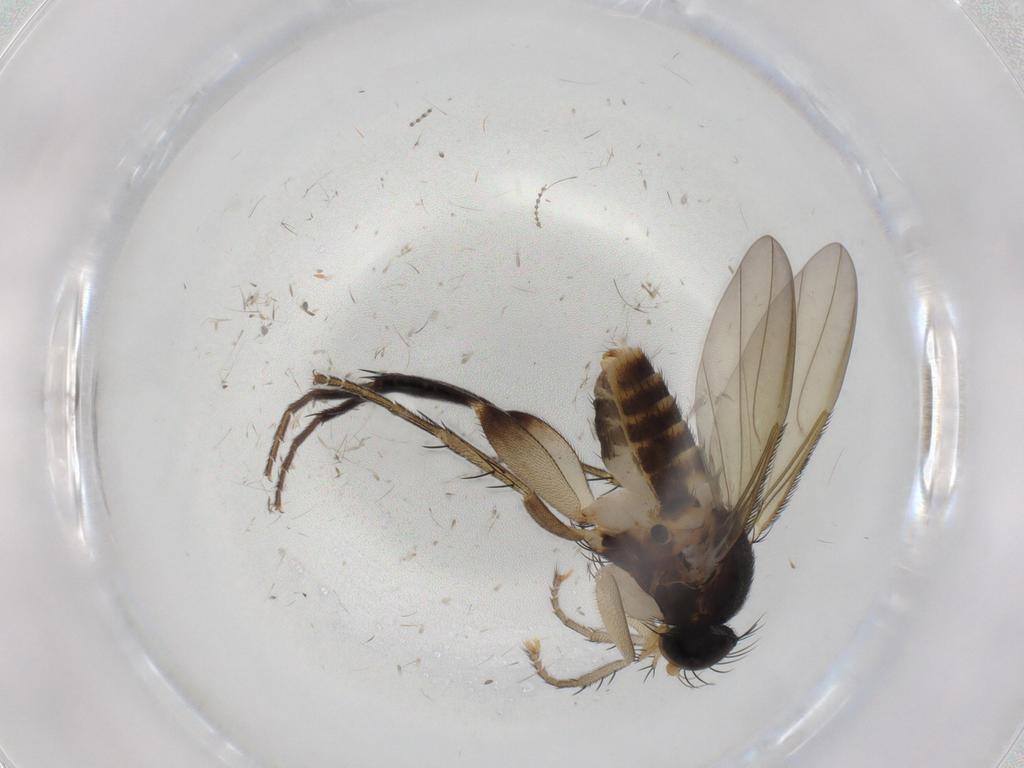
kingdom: Animalia
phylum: Arthropoda
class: Insecta
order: Diptera
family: Phoridae
